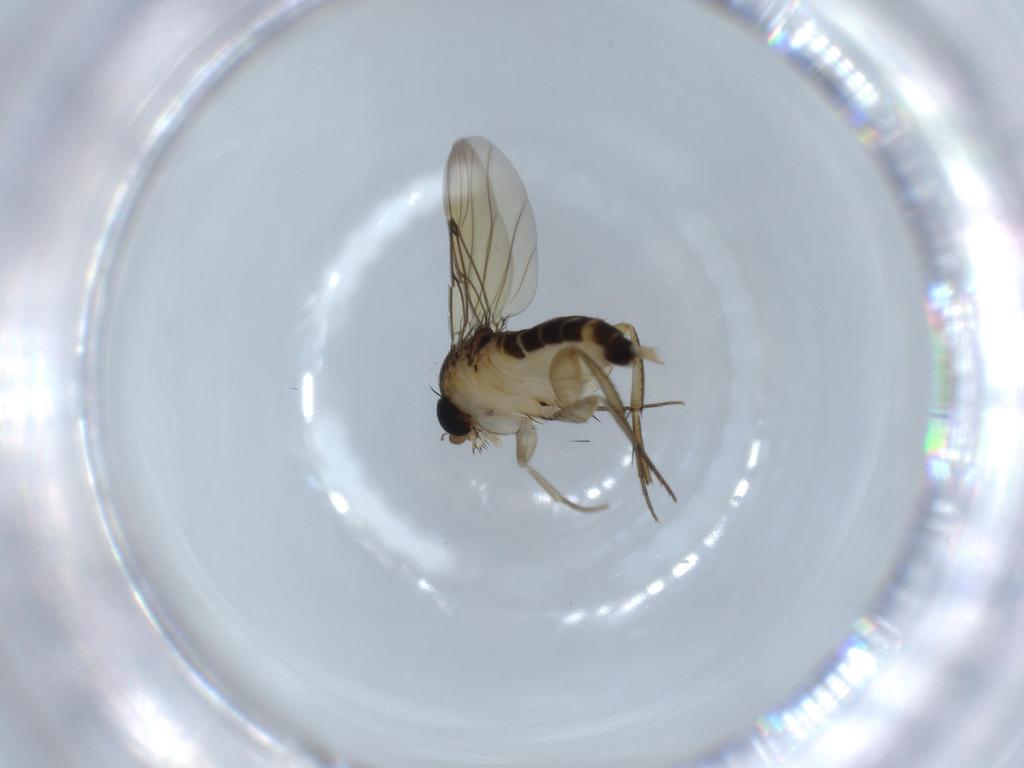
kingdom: Animalia
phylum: Arthropoda
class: Insecta
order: Diptera
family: Phoridae
